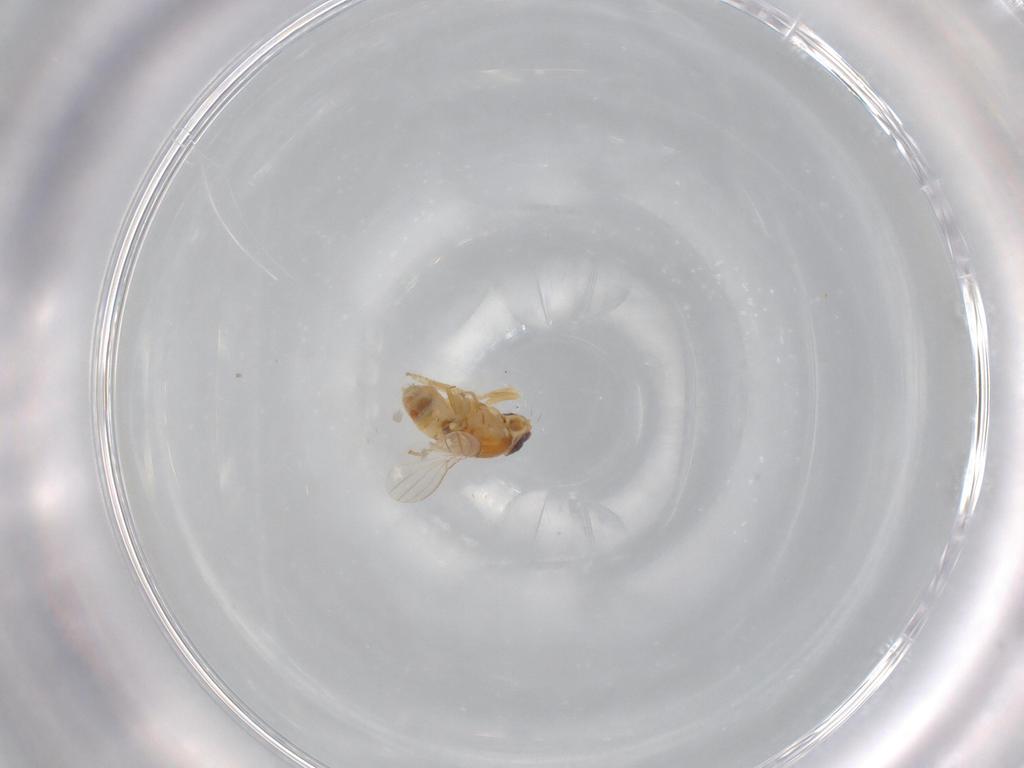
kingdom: Animalia
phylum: Arthropoda
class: Insecta
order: Diptera
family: Chyromyidae
